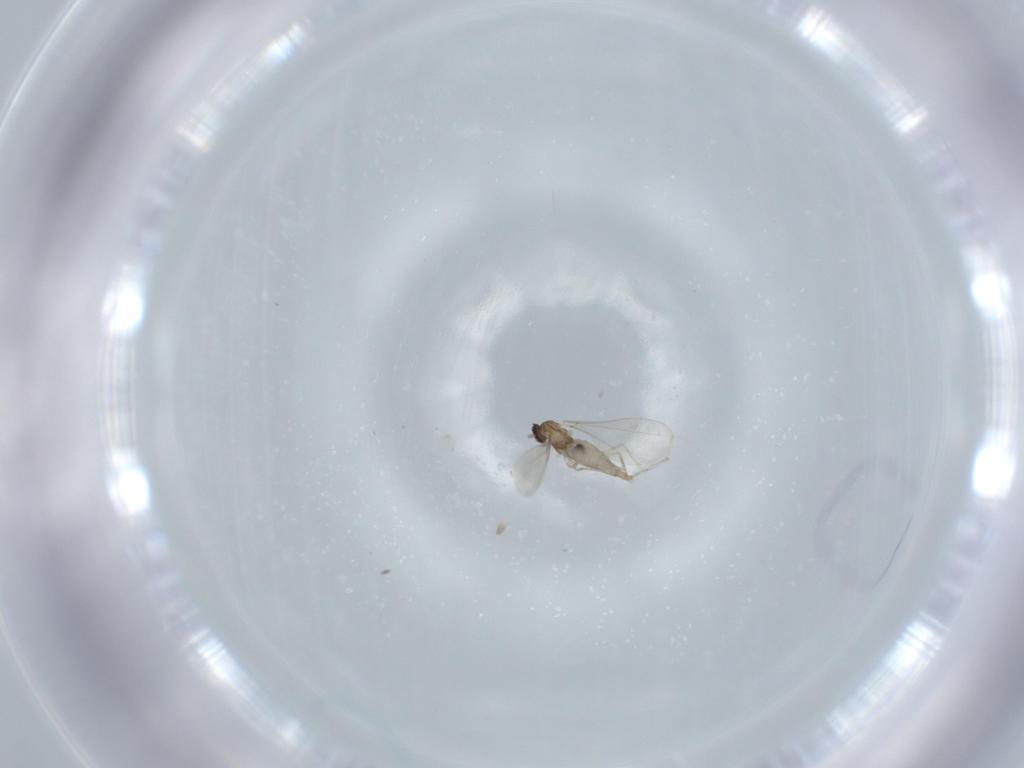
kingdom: Animalia
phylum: Arthropoda
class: Insecta
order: Diptera
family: Cecidomyiidae
